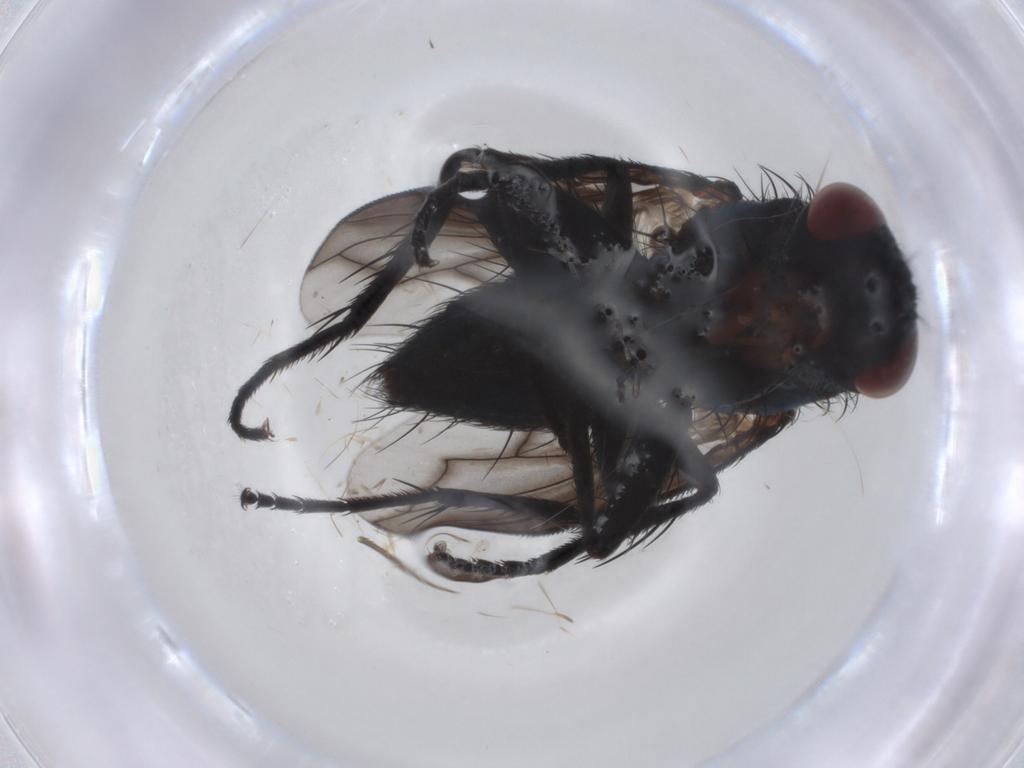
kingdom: Animalia
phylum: Arthropoda
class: Insecta
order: Diptera
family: Tachinidae
